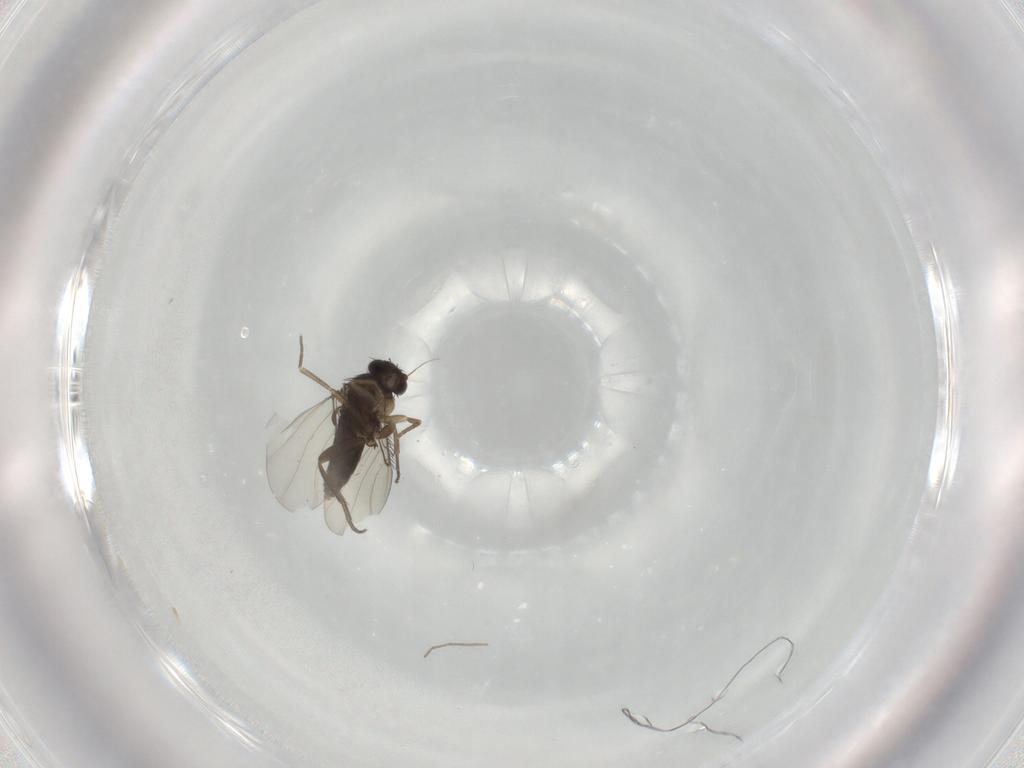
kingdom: Animalia
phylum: Arthropoda
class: Insecta
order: Diptera
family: Phoridae
